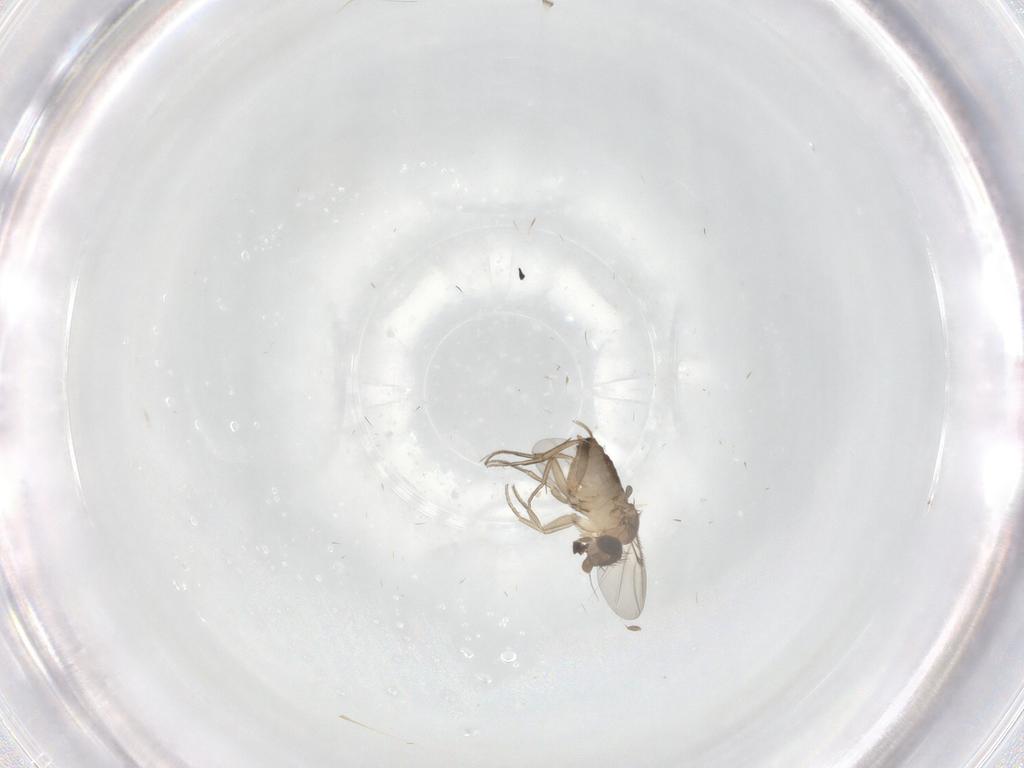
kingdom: Animalia
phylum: Arthropoda
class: Insecta
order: Diptera
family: Phoridae
